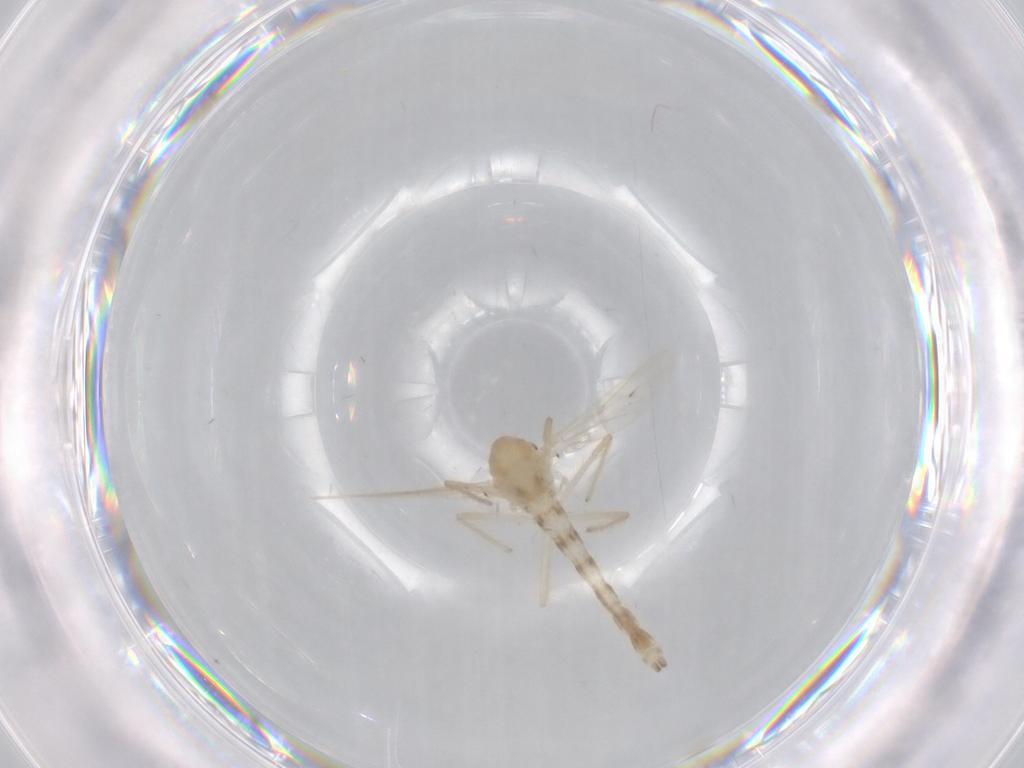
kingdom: Animalia
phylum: Arthropoda
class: Insecta
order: Diptera
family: Chironomidae
